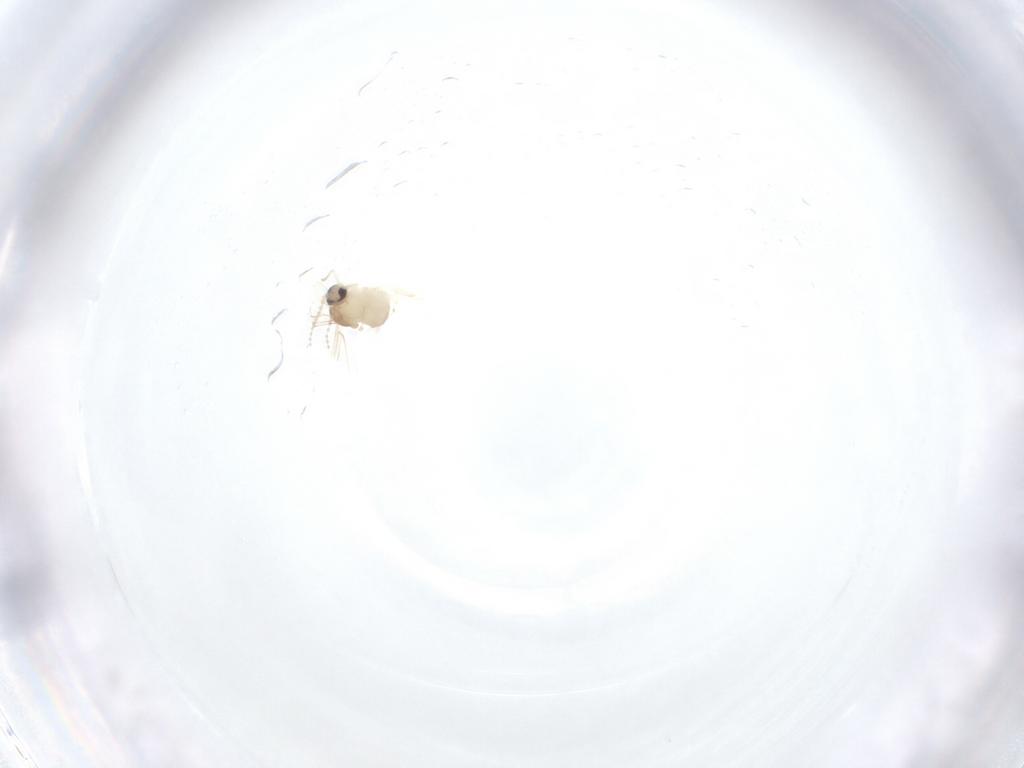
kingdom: Animalia
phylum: Arthropoda
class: Insecta
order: Diptera
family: Cecidomyiidae
